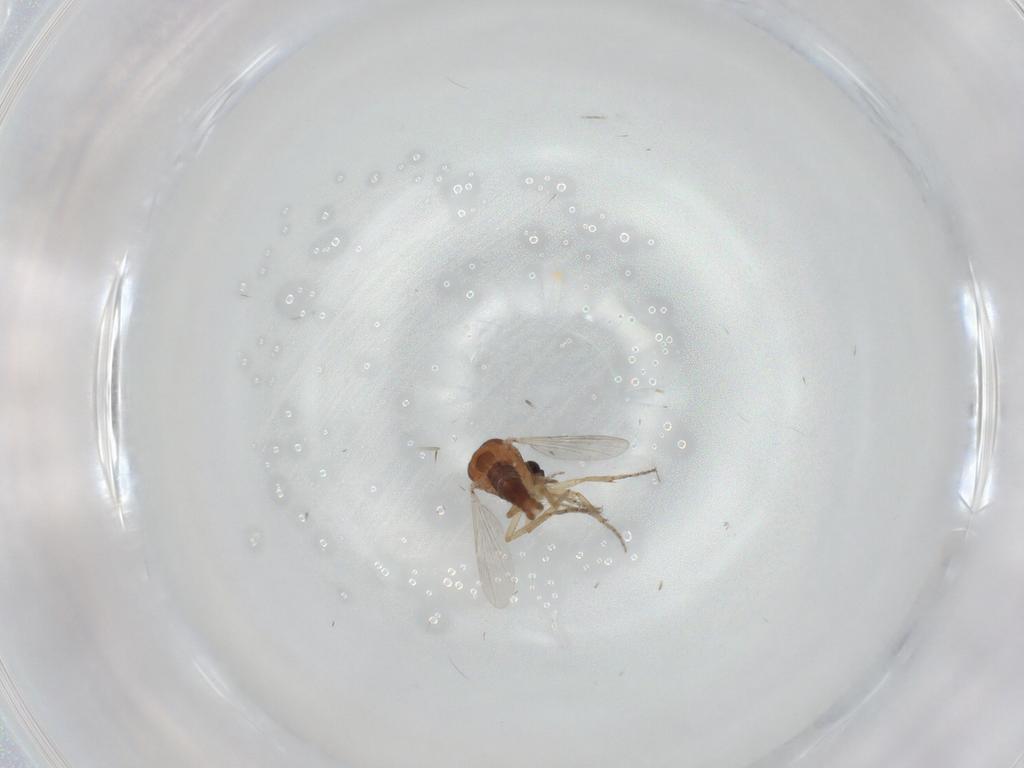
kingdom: Animalia
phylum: Arthropoda
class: Insecta
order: Diptera
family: Ceratopogonidae
